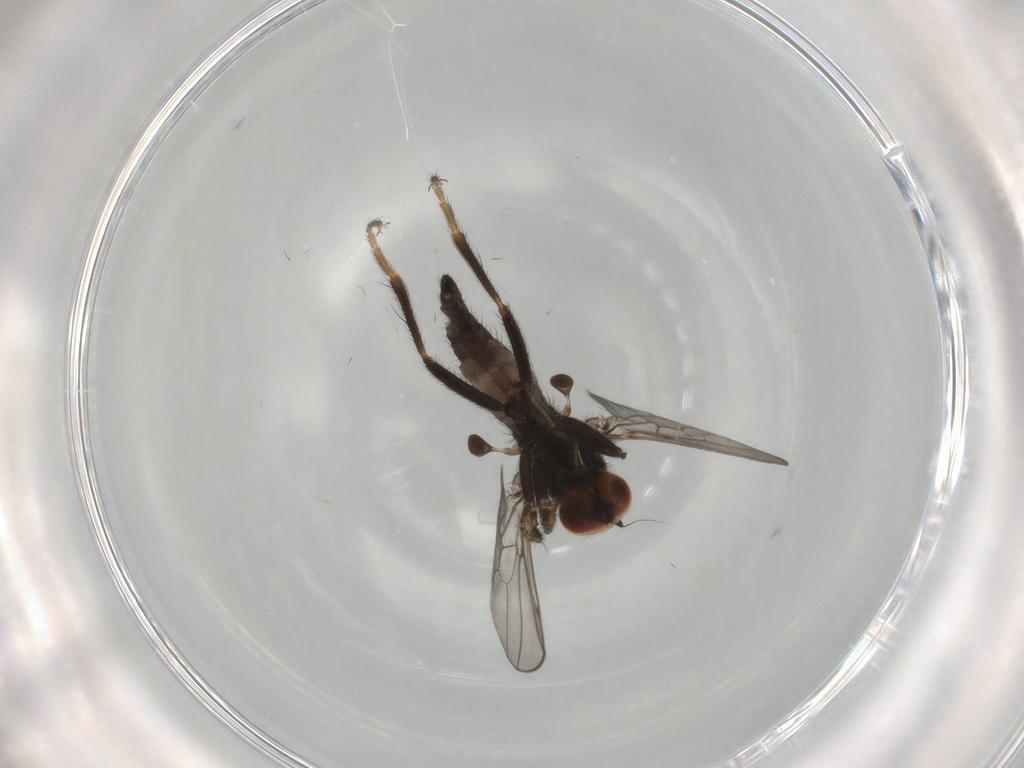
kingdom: Animalia
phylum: Arthropoda
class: Insecta
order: Diptera
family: Hybotidae
